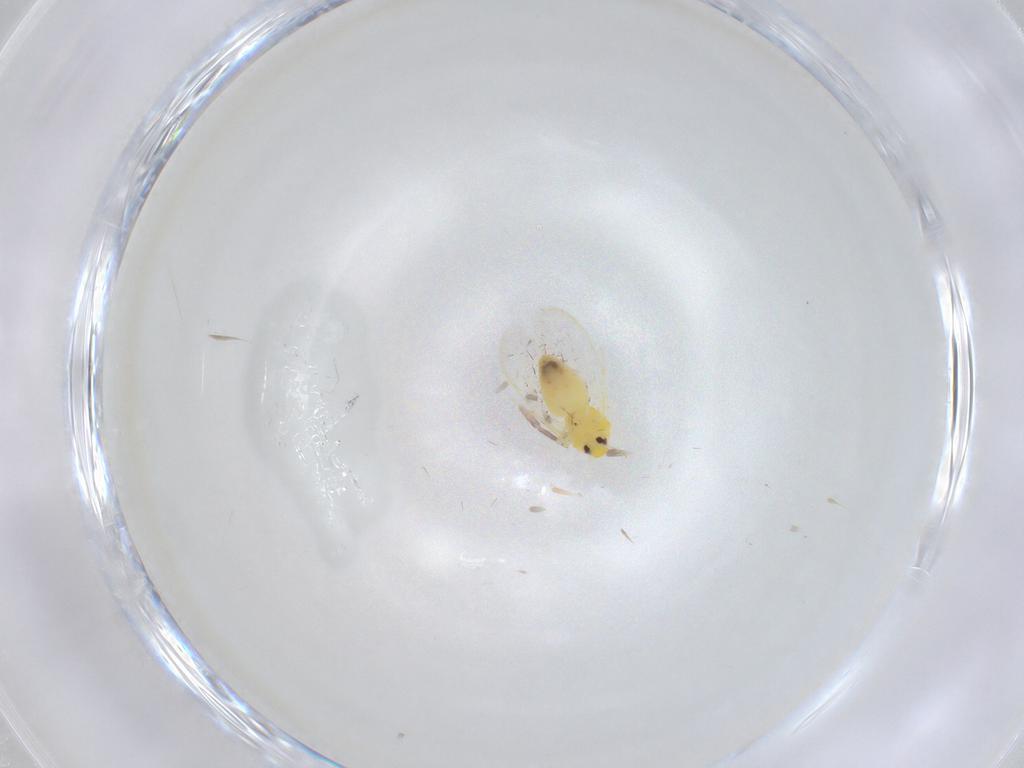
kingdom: Animalia
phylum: Arthropoda
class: Insecta
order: Hemiptera
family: Aleyrodidae
